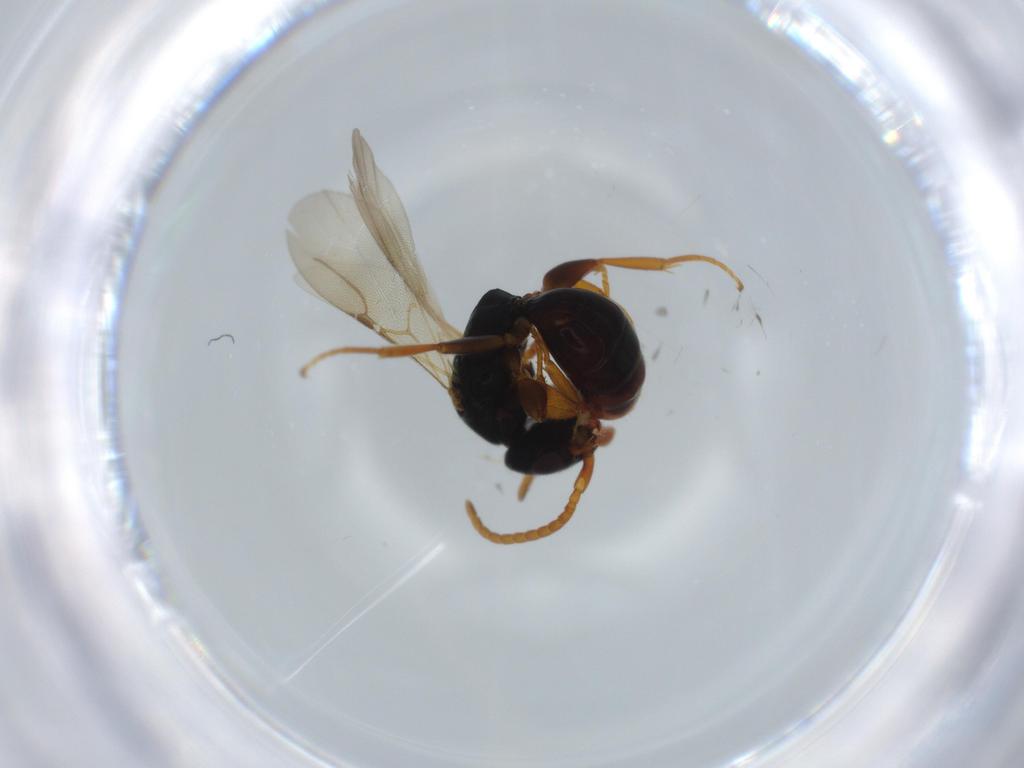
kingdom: Animalia
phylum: Arthropoda
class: Insecta
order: Hymenoptera
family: Bethylidae
